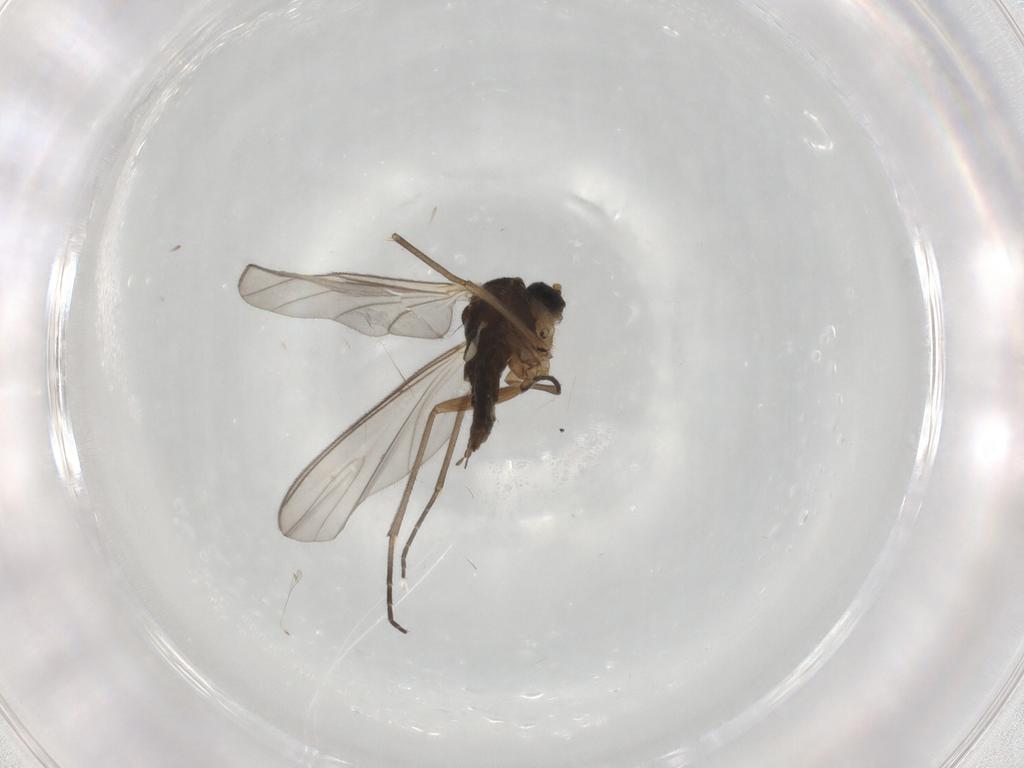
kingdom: Animalia
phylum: Arthropoda
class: Insecta
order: Diptera
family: Sciaridae
